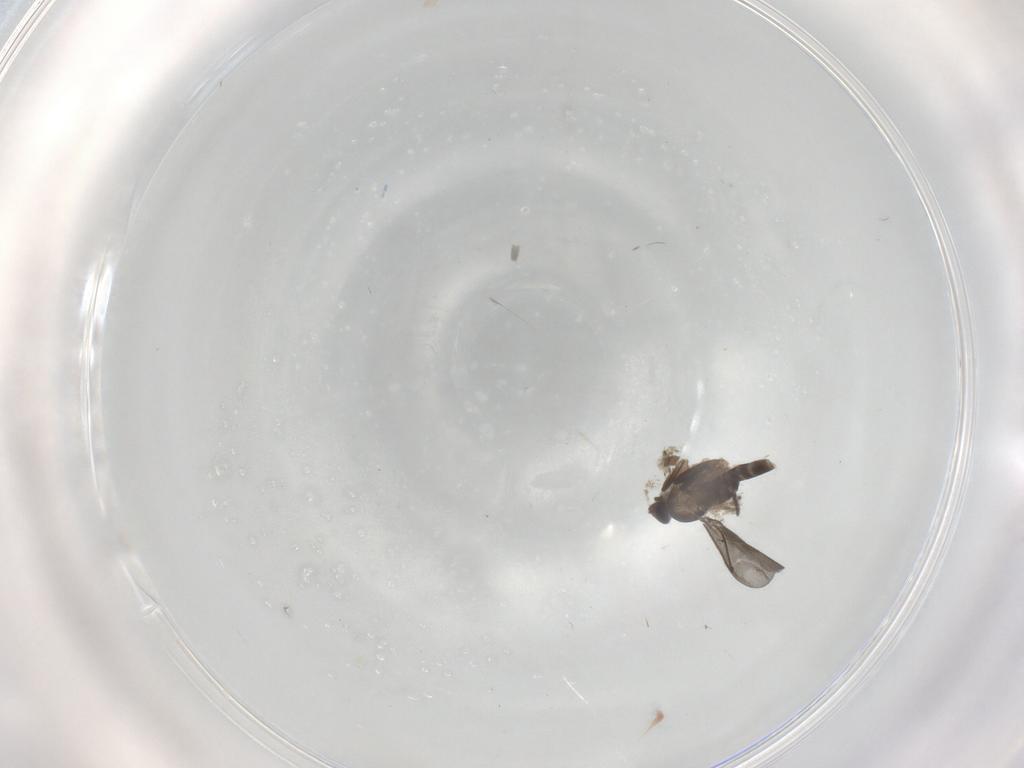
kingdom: Animalia
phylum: Arthropoda
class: Insecta
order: Diptera
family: Phoridae
